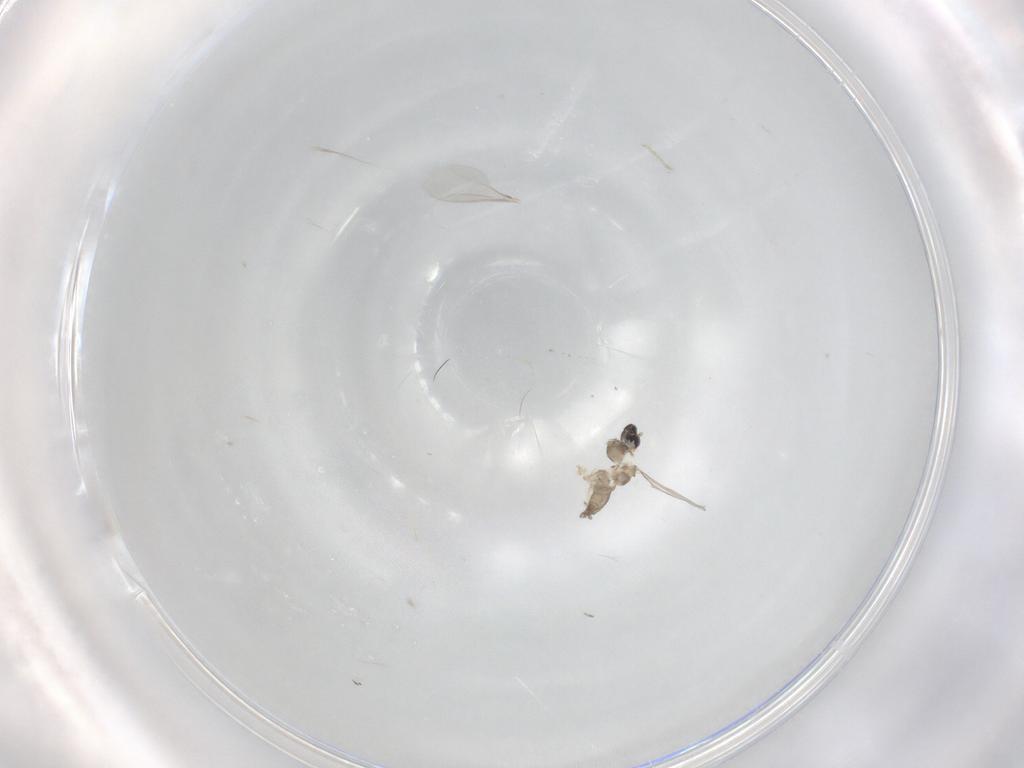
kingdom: Animalia
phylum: Arthropoda
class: Insecta
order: Diptera
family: Cecidomyiidae
